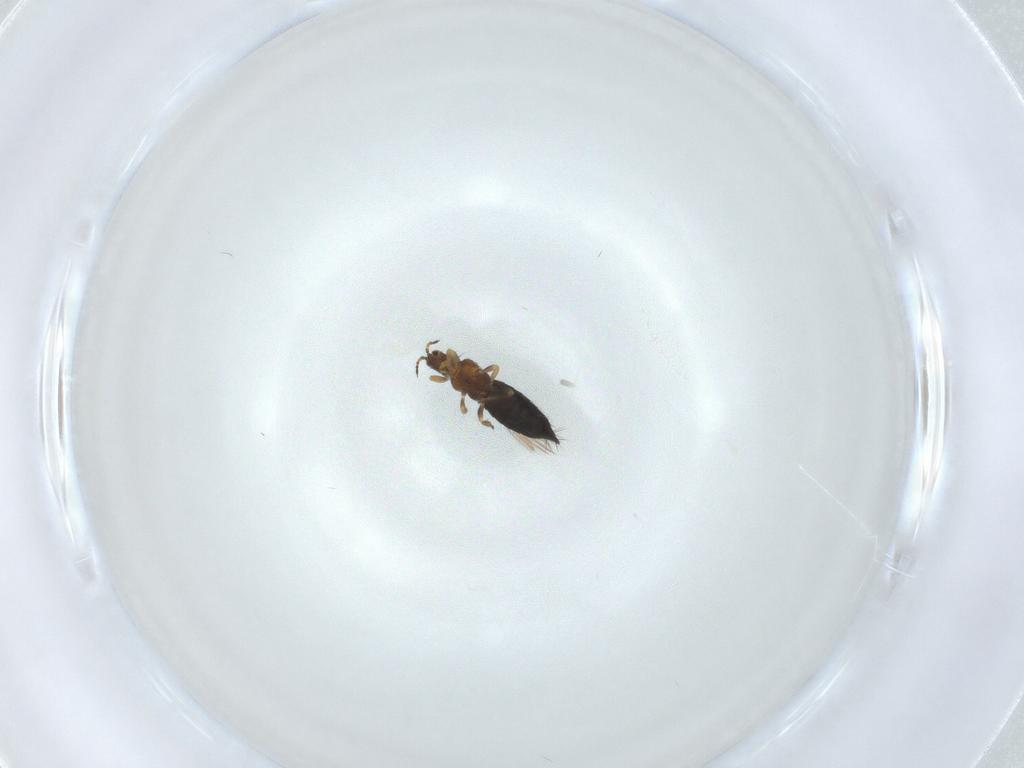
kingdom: Animalia
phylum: Arthropoda
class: Insecta
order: Thysanoptera
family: Thripidae
